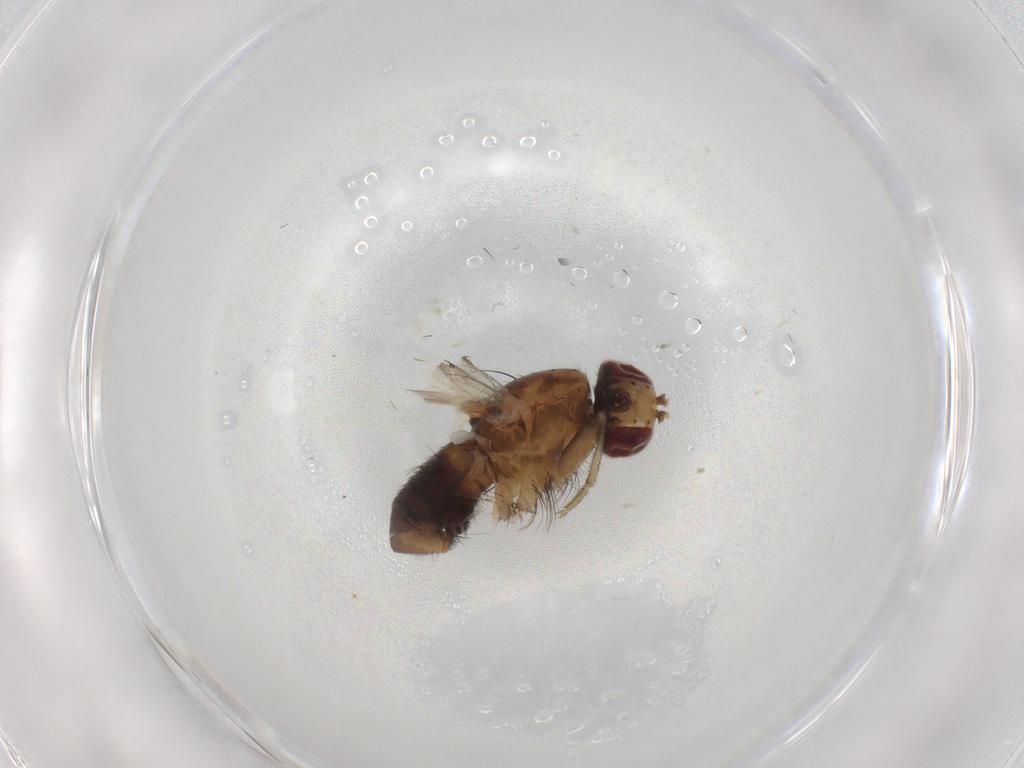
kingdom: Animalia
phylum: Arthropoda
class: Insecta
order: Diptera
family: Heleomyzidae
